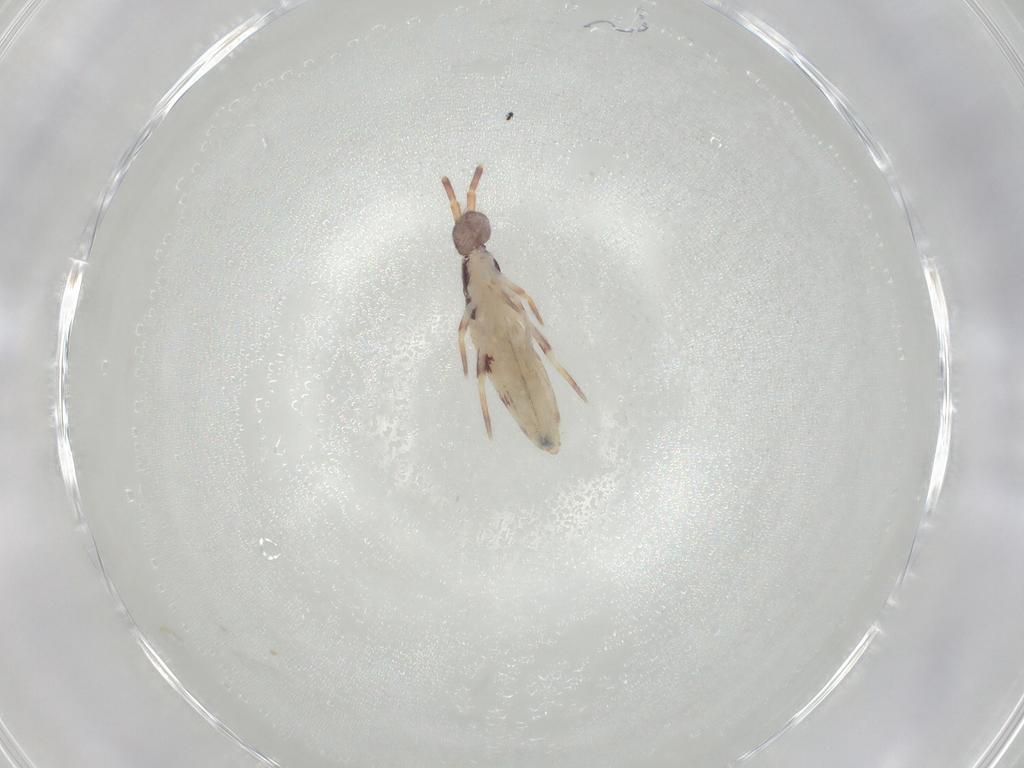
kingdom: Animalia
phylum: Arthropoda
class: Collembola
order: Entomobryomorpha
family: Entomobryidae
